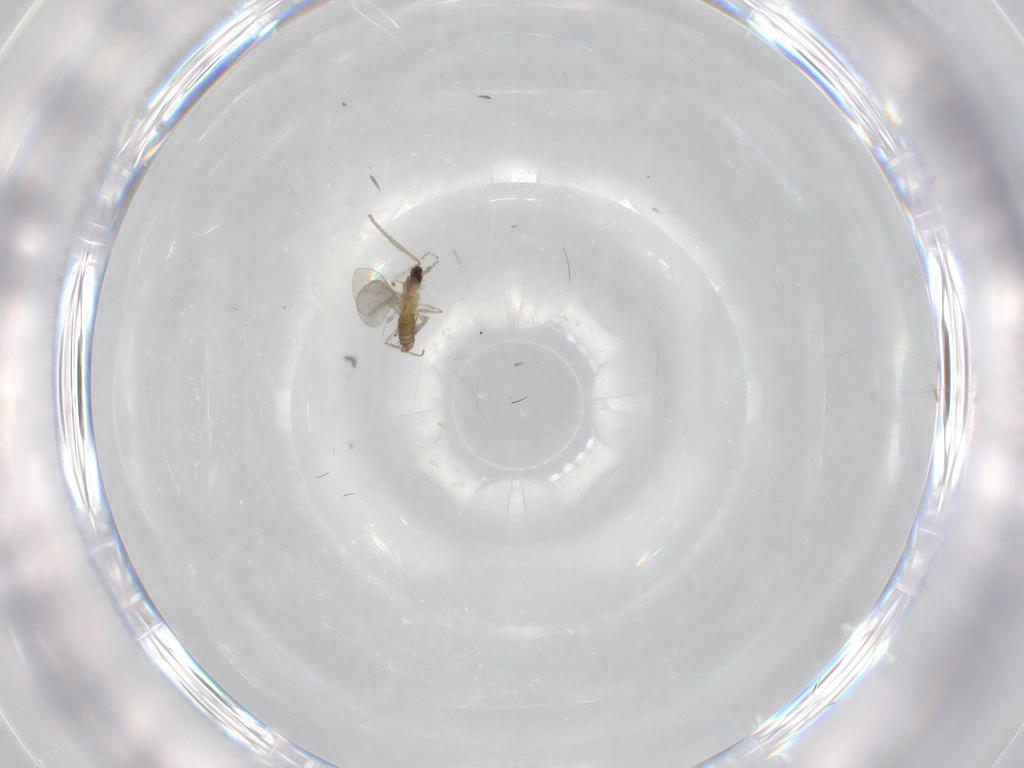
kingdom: Animalia
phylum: Arthropoda
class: Insecta
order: Diptera
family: Cecidomyiidae
